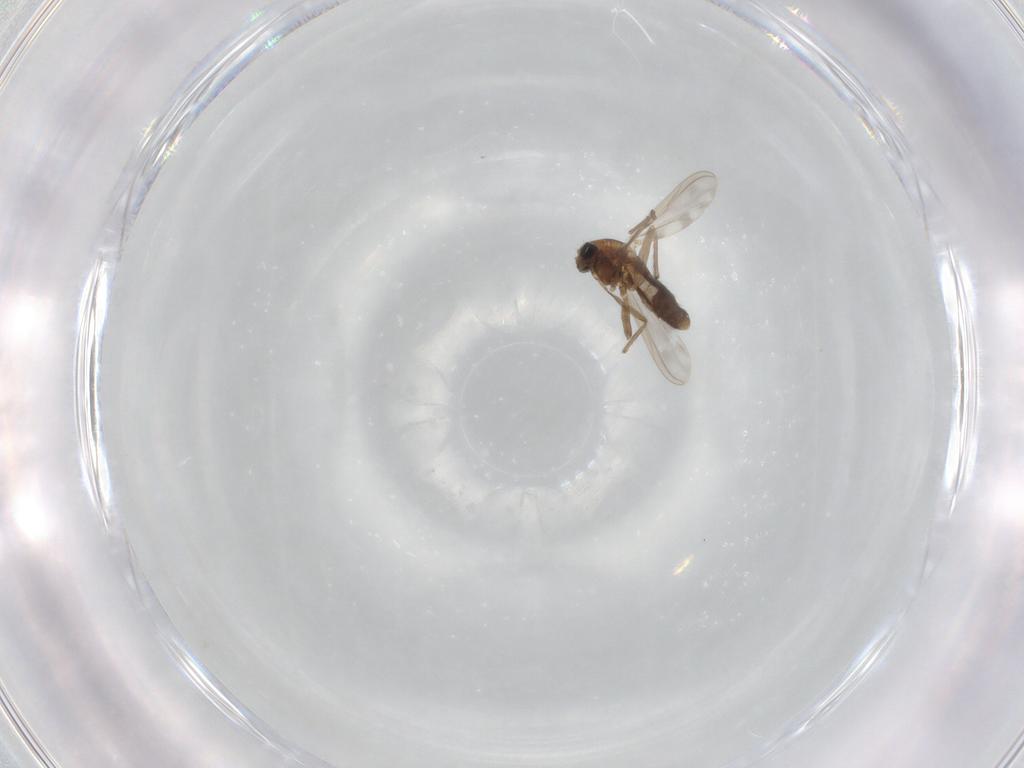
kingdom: Animalia
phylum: Arthropoda
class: Insecta
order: Diptera
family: Chironomidae
